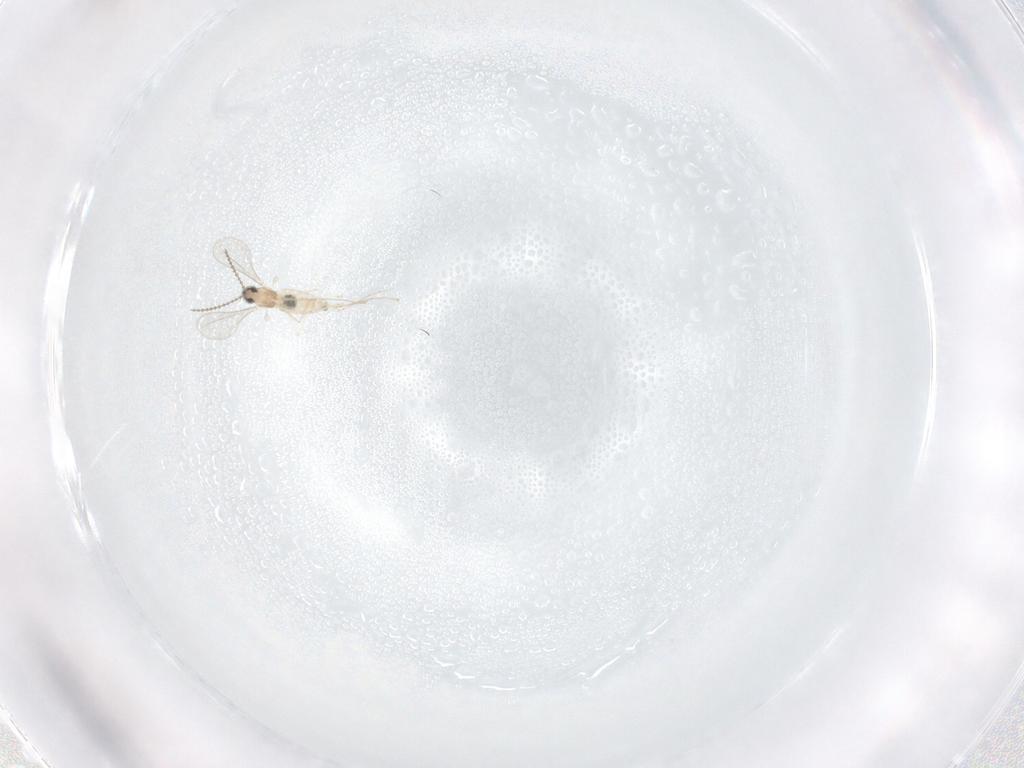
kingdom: Animalia
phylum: Arthropoda
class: Insecta
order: Diptera
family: Cecidomyiidae
